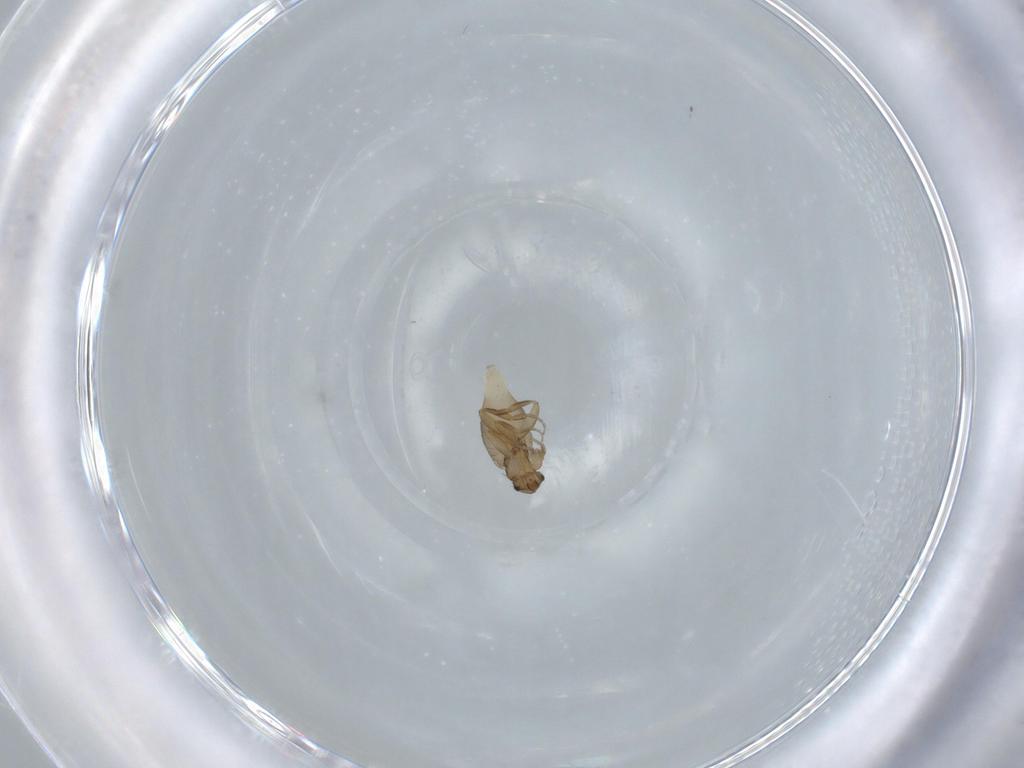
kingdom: Animalia
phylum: Arthropoda
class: Insecta
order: Diptera
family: Phoridae
